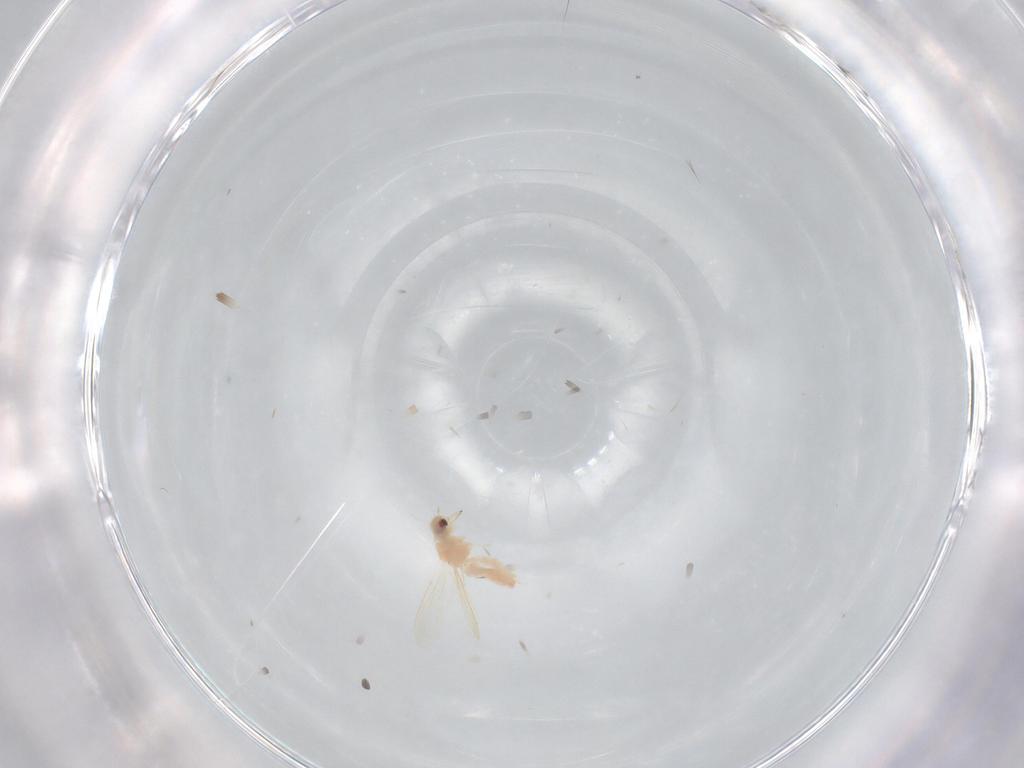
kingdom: Animalia
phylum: Arthropoda
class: Insecta
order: Hemiptera
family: Aleyrodidae
